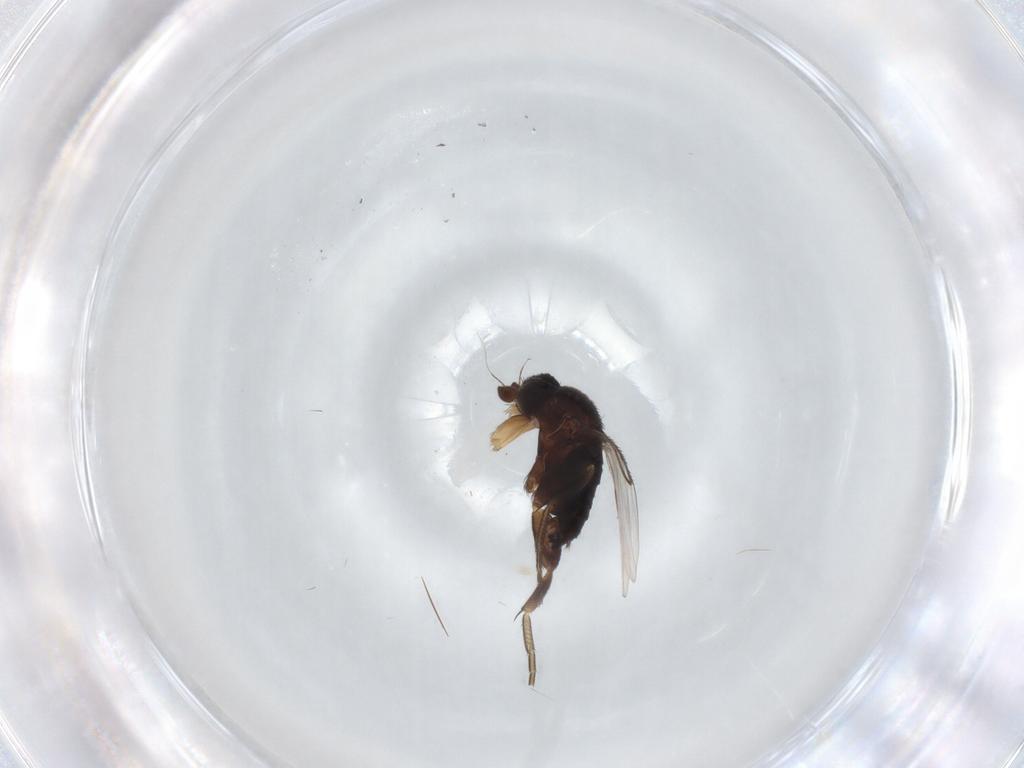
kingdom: Animalia
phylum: Arthropoda
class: Insecta
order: Diptera
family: Phoridae
